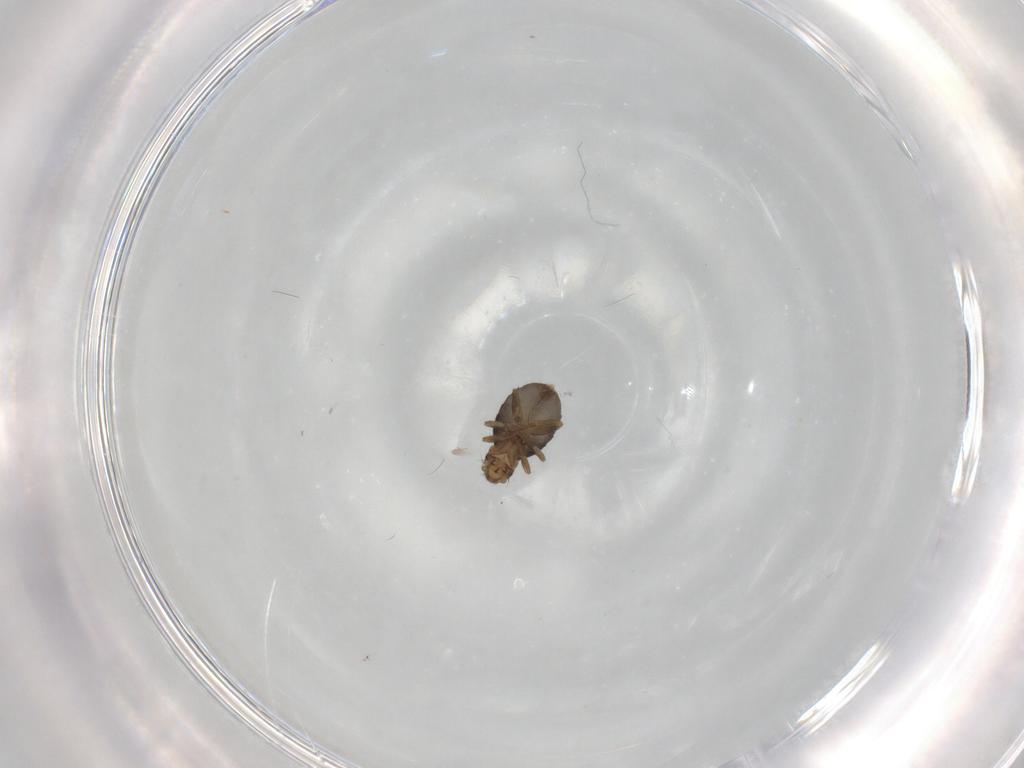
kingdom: Animalia
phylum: Arthropoda
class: Insecta
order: Diptera
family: Phoridae
